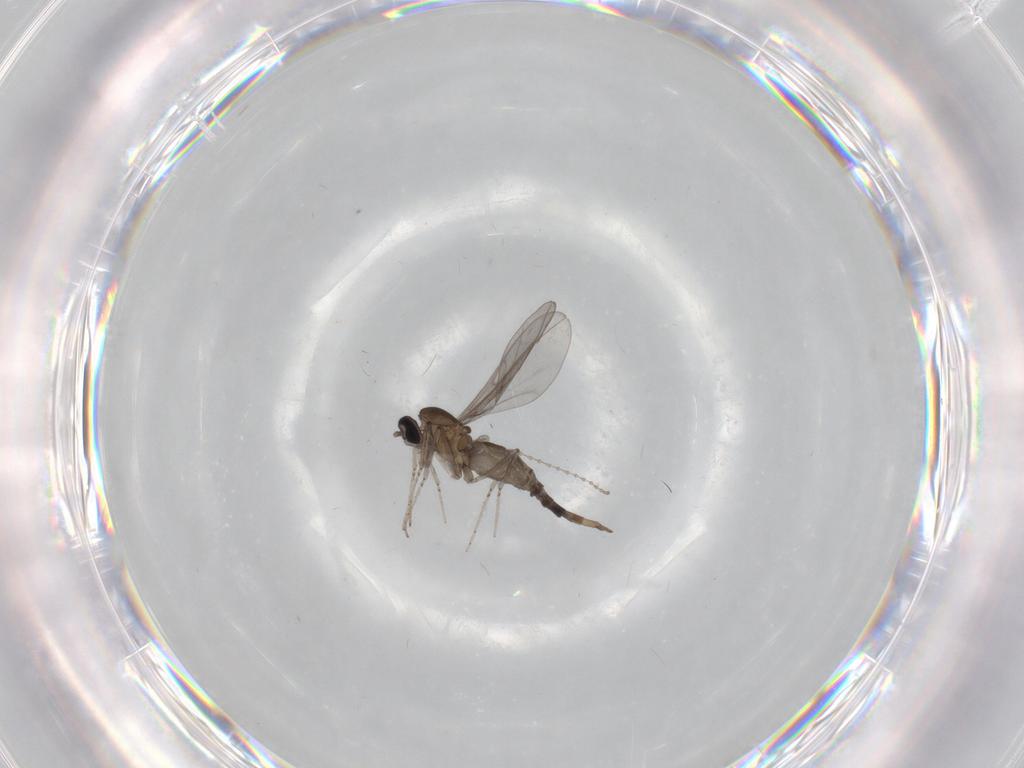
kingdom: Animalia
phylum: Arthropoda
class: Insecta
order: Diptera
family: Cecidomyiidae
